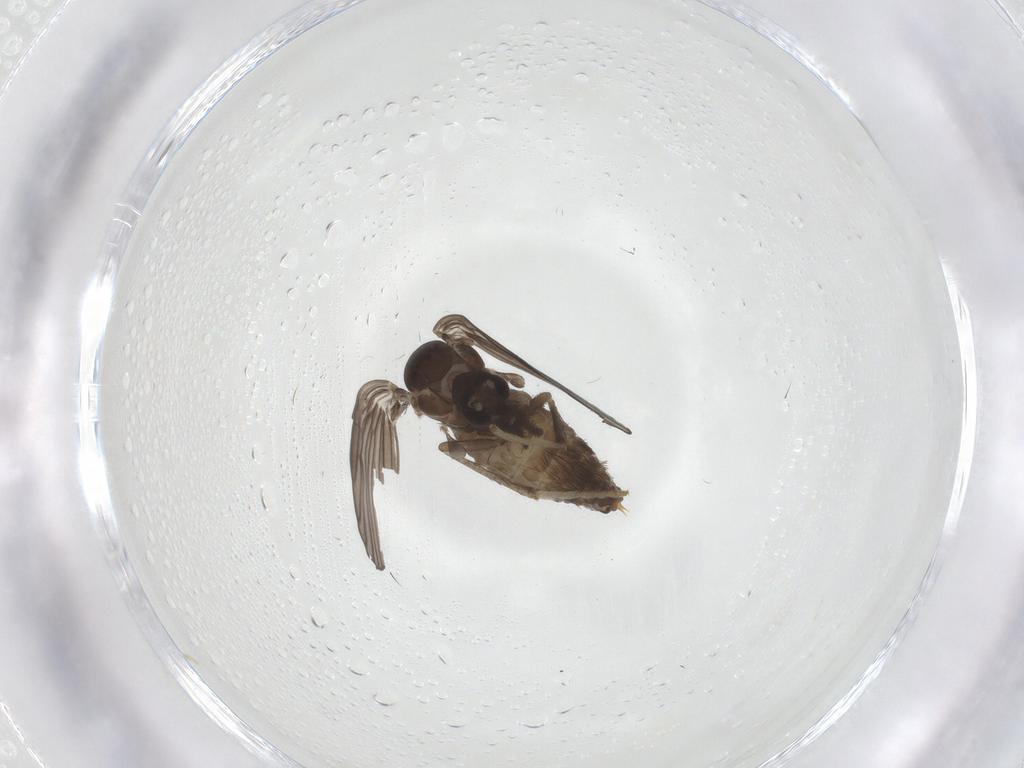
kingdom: Animalia
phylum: Arthropoda
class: Insecta
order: Diptera
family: Psychodidae
